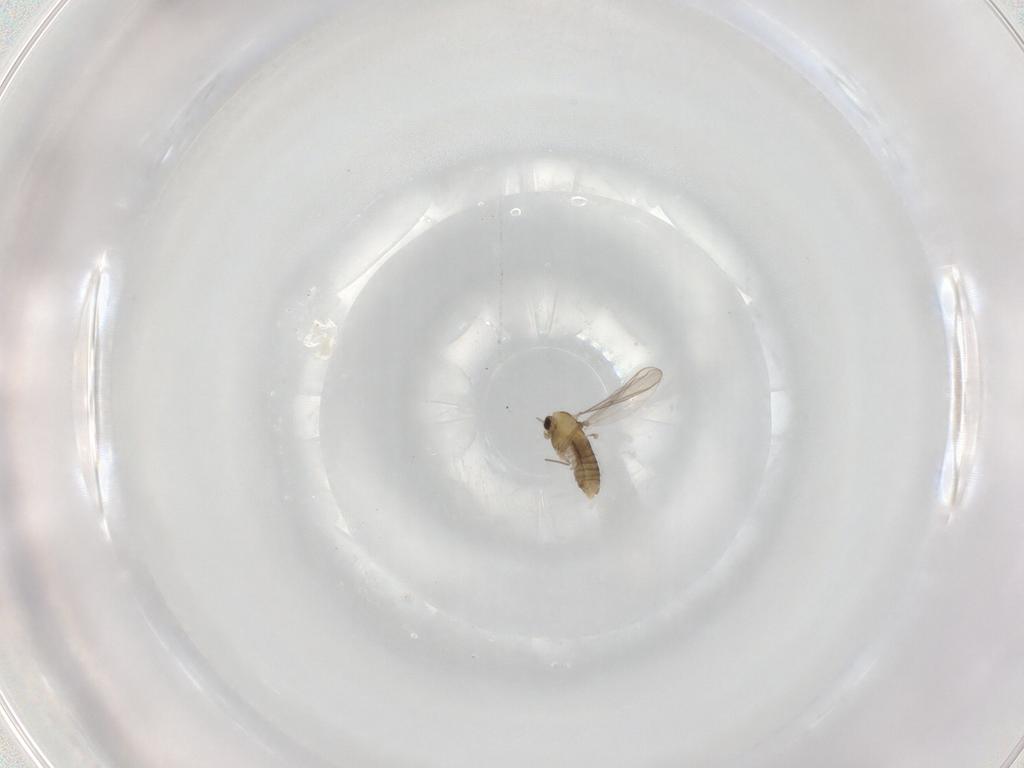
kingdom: Animalia
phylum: Arthropoda
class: Insecta
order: Diptera
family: Chironomidae
